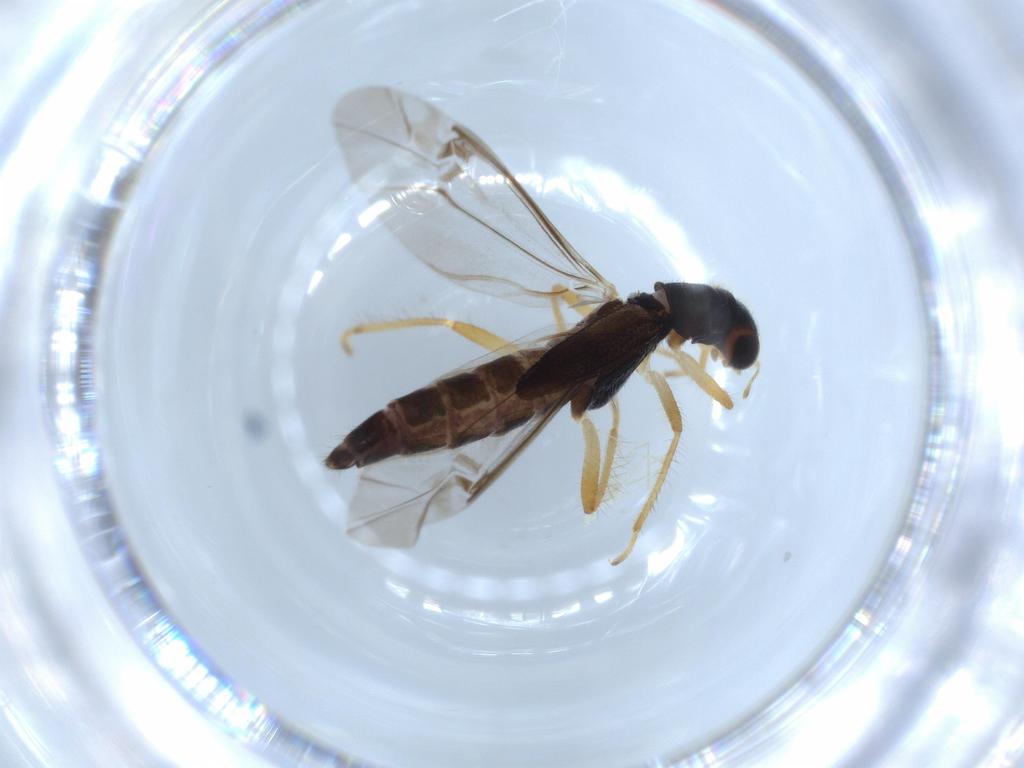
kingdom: Animalia
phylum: Arthropoda
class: Insecta
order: Coleoptera
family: Cleridae
